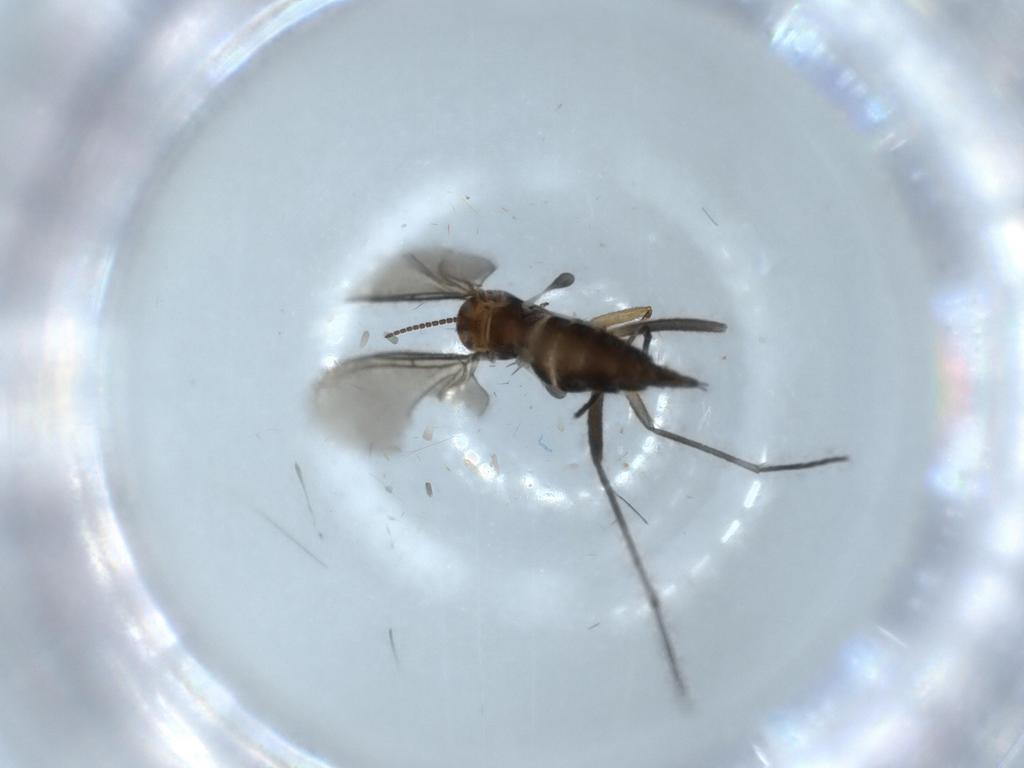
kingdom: Animalia
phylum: Arthropoda
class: Insecta
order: Diptera
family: Sciaridae
